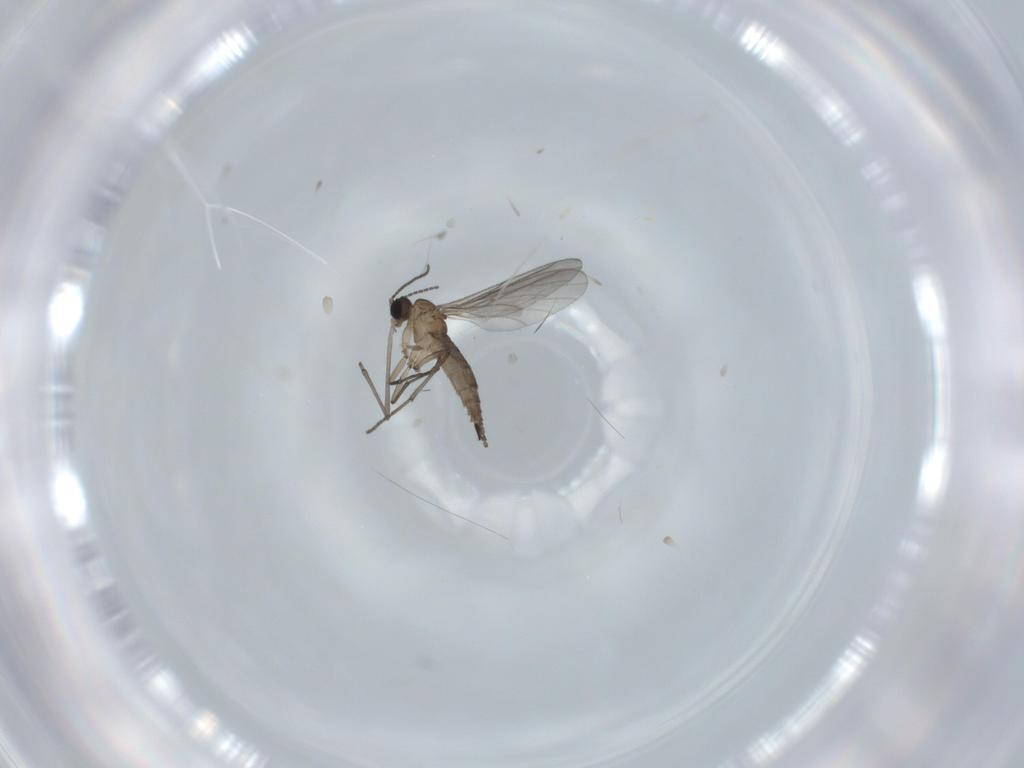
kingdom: Animalia
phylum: Arthropoda
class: Insecta
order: Diptera
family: Sciaridae
